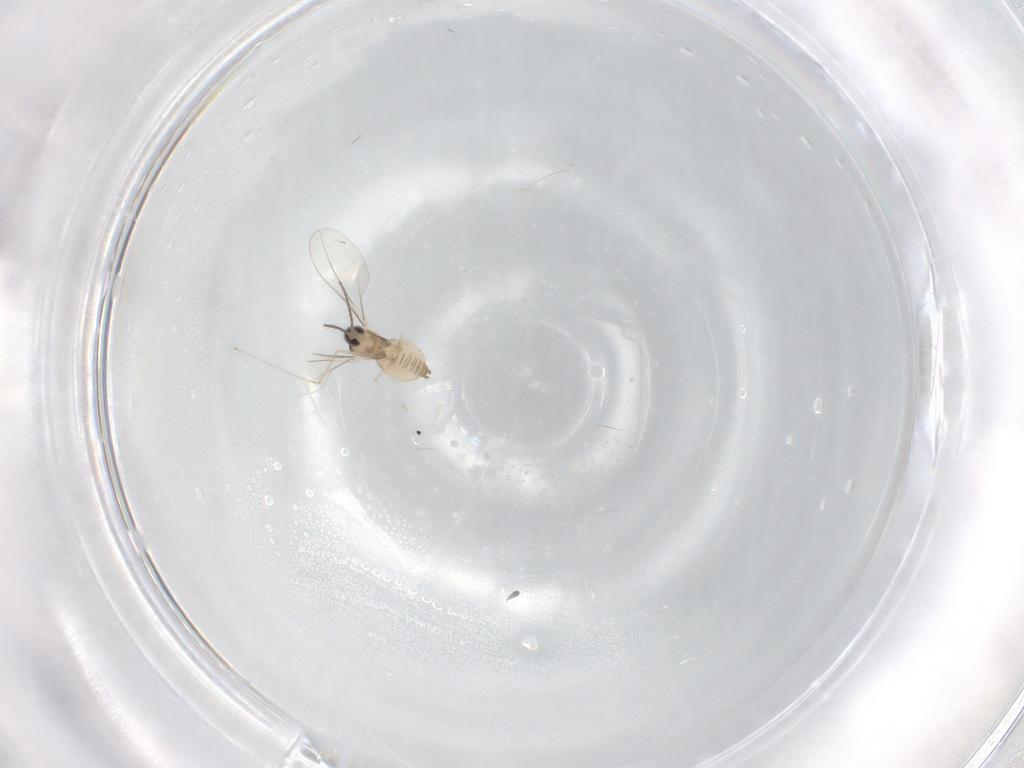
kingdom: Animalia
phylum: Arthropoda
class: Insecta
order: Diptera
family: Cecidomyiidae
